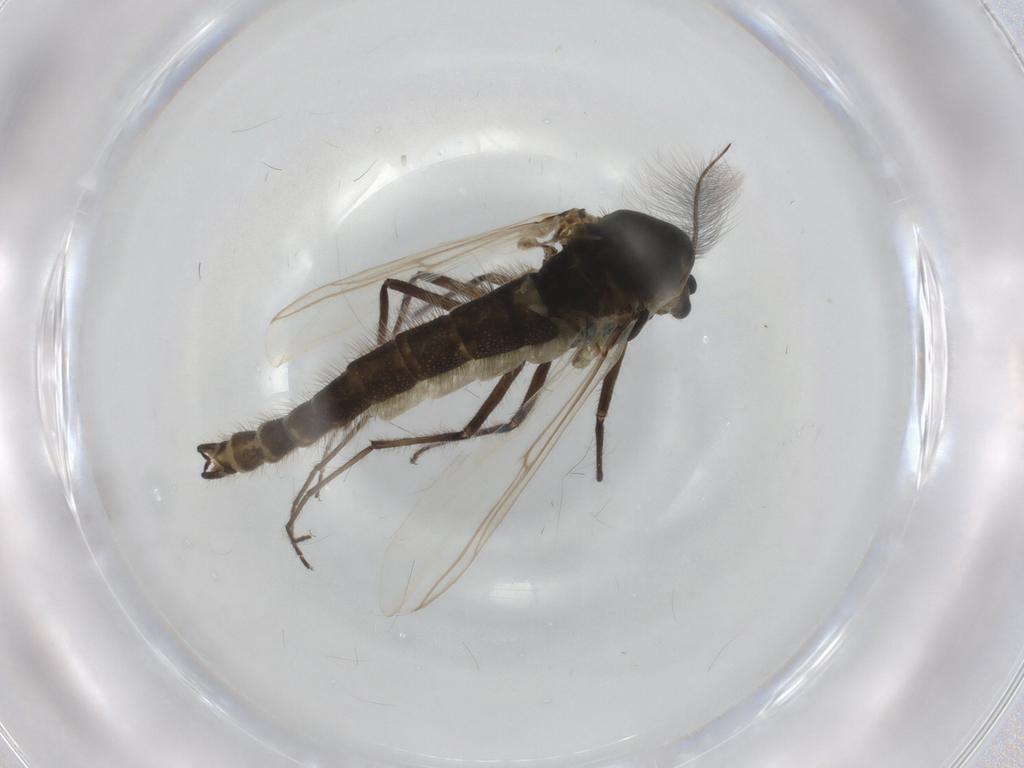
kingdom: Animalia
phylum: Arthropoda
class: Insecta
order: Diptera
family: Chironomidae
